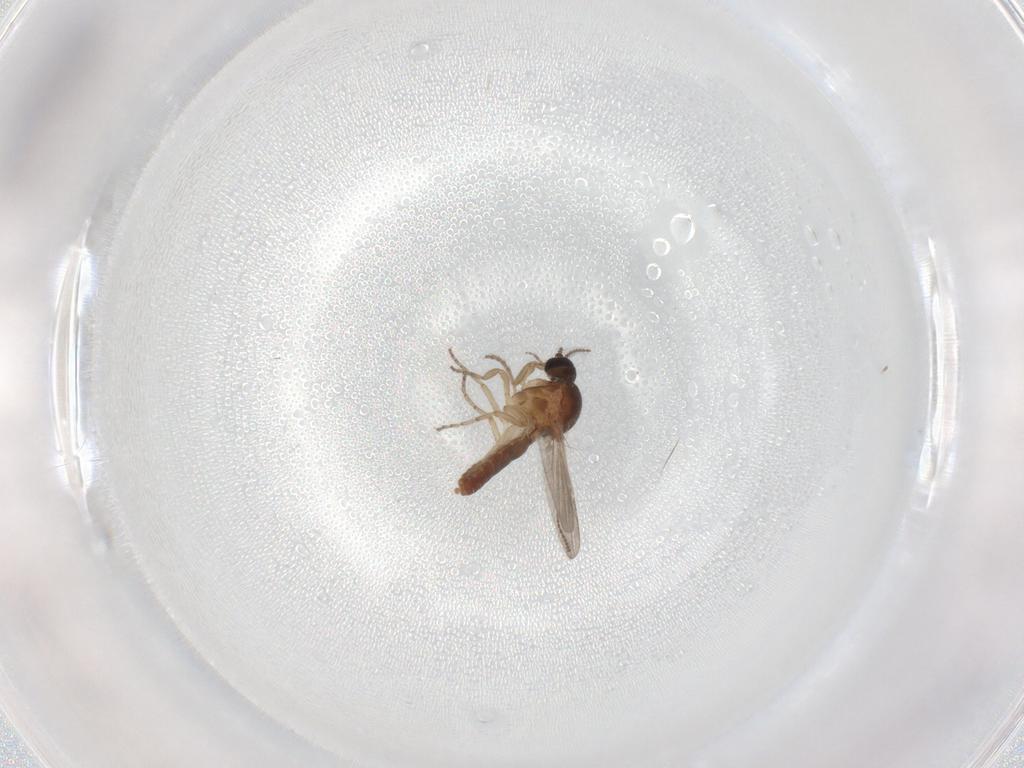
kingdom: Animalia
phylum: Arthropoda
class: Insecta
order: Diptera
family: Ceratopogonidae
